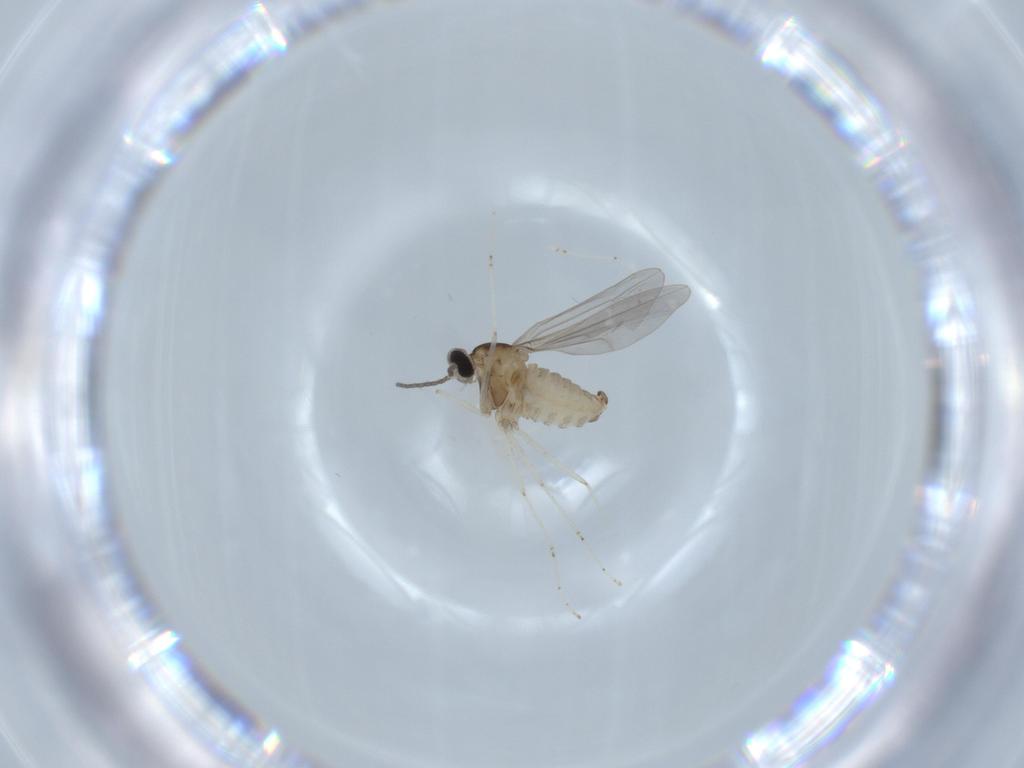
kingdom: Animalia
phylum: Arthropoda
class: Insecta
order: Diptera
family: Cecidomyiidae
